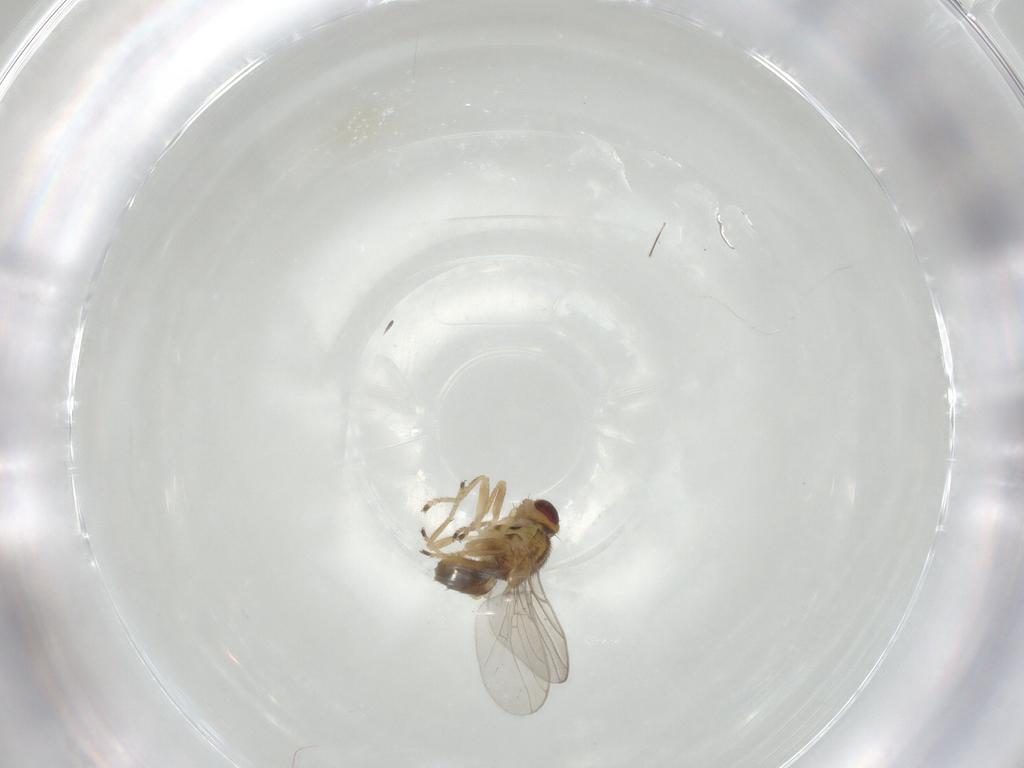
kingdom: Animalia
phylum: Arthropoda
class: Insecta
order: Diptera
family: Chloropidae
